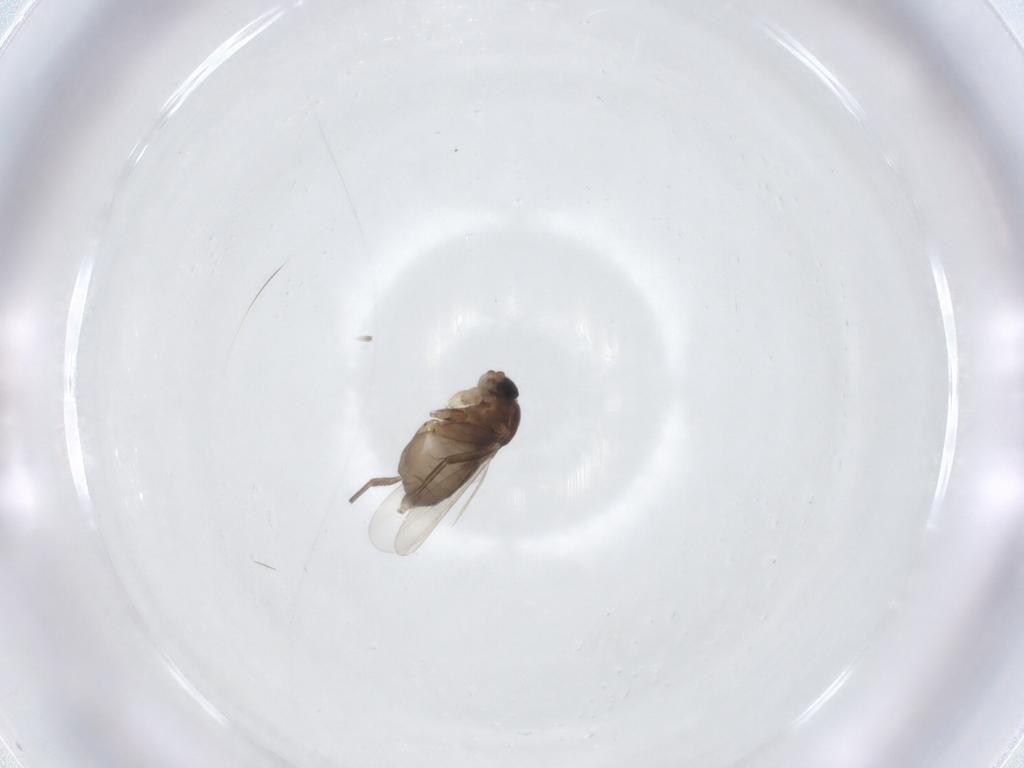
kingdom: Animalia
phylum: Arthropoda
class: Insecta
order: Diptera
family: Phoridae
